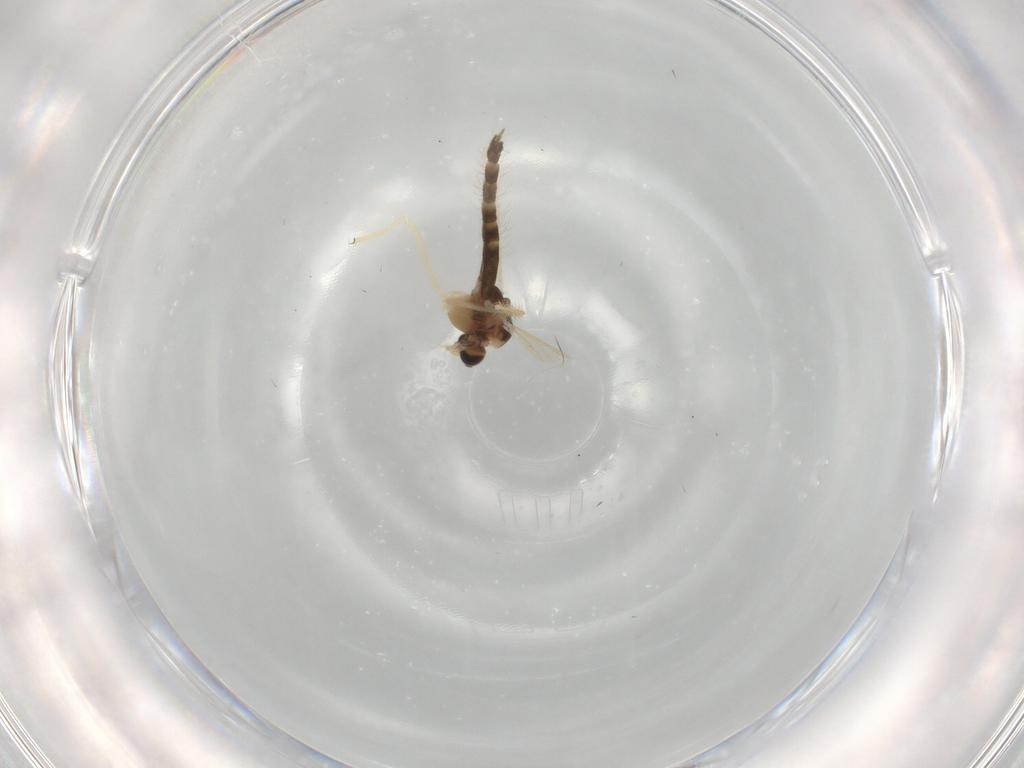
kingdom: Animalia
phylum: Arthropoda
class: Insecta
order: Diptera
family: Chironomidae
